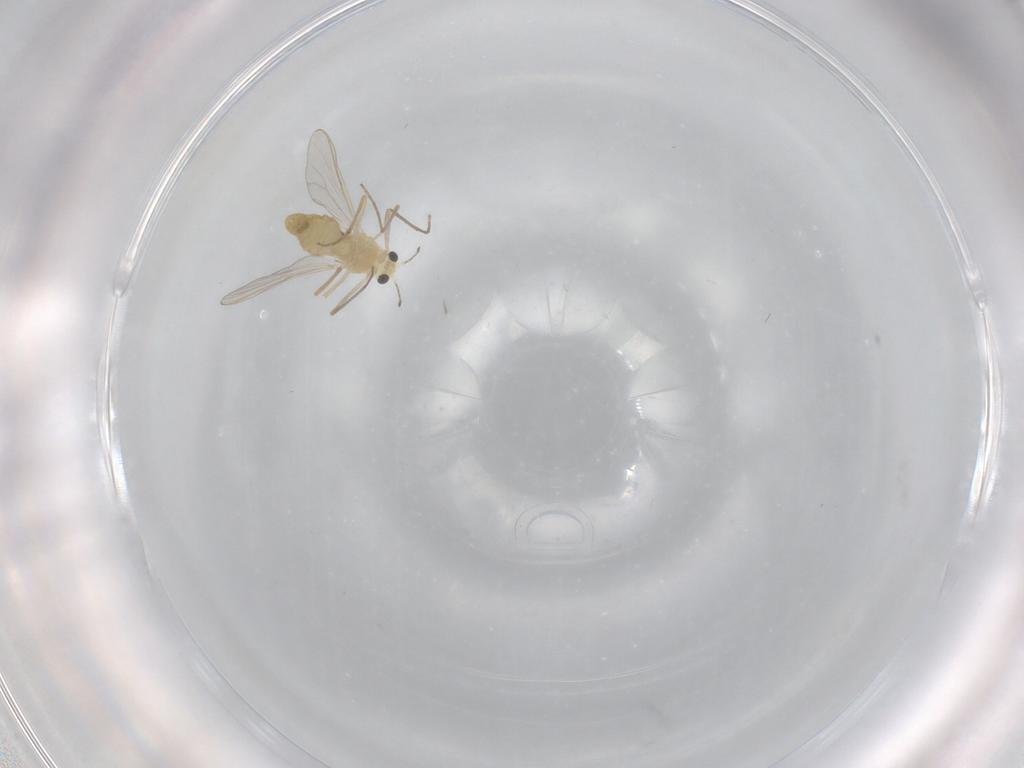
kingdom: Animalia
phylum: Arthropoda
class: Insecta
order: Diptera
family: Chironomidae
